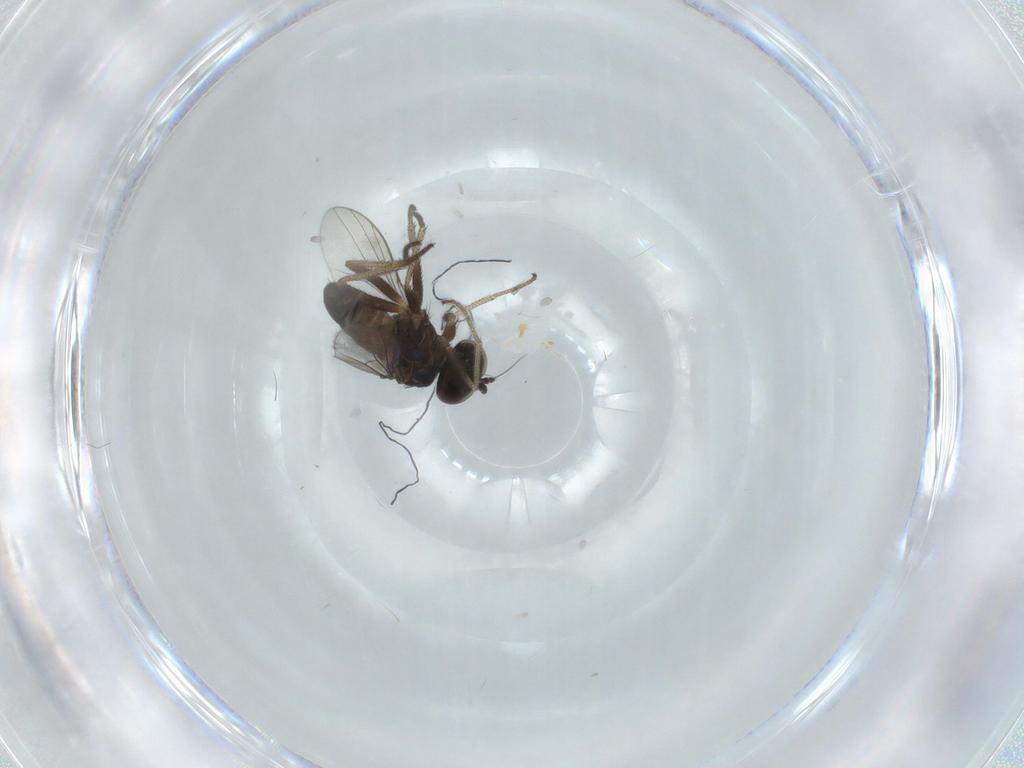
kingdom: Animalia
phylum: Arthropoda
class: Insecta
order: Diptera
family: Dolichopodidae
